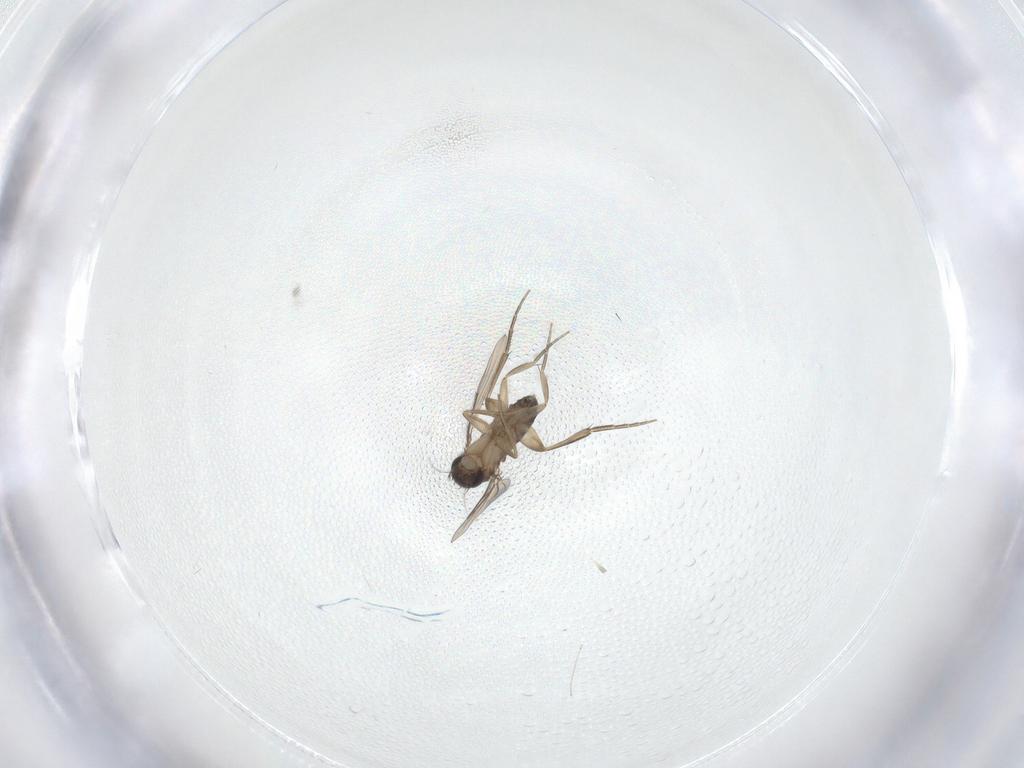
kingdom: Animalia
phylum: Arthropoda
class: Insecta
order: Diptera
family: Phoridae
